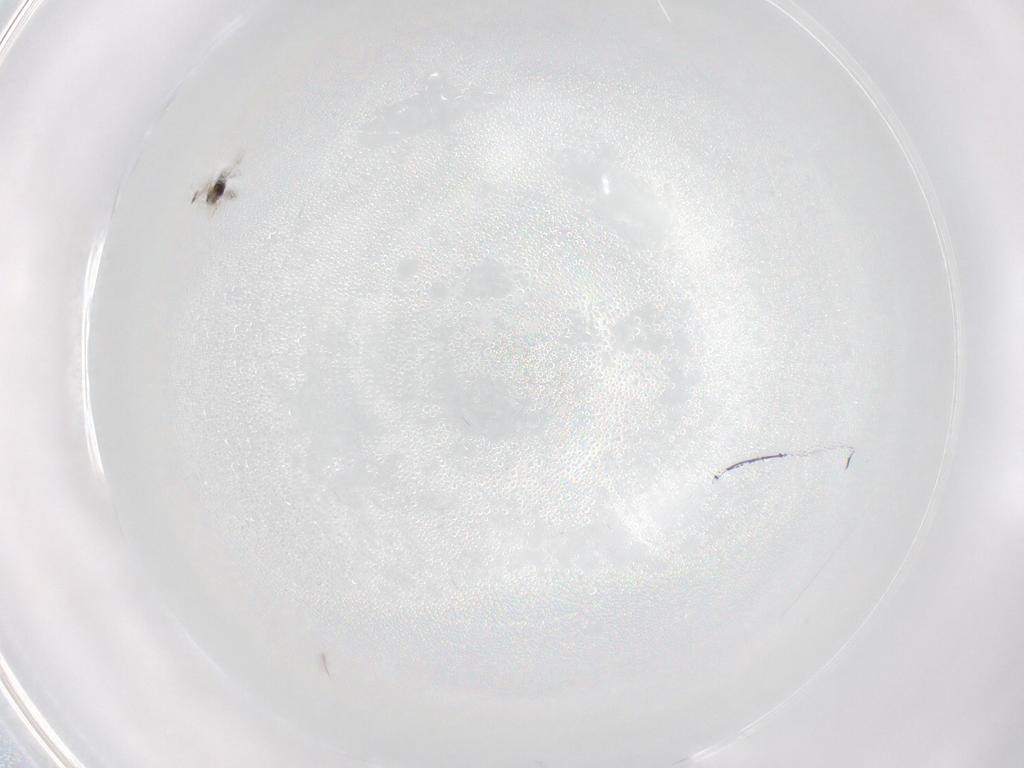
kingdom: Animalia
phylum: Arthropoda
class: Insecta
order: Diptera
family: Sciaridae
